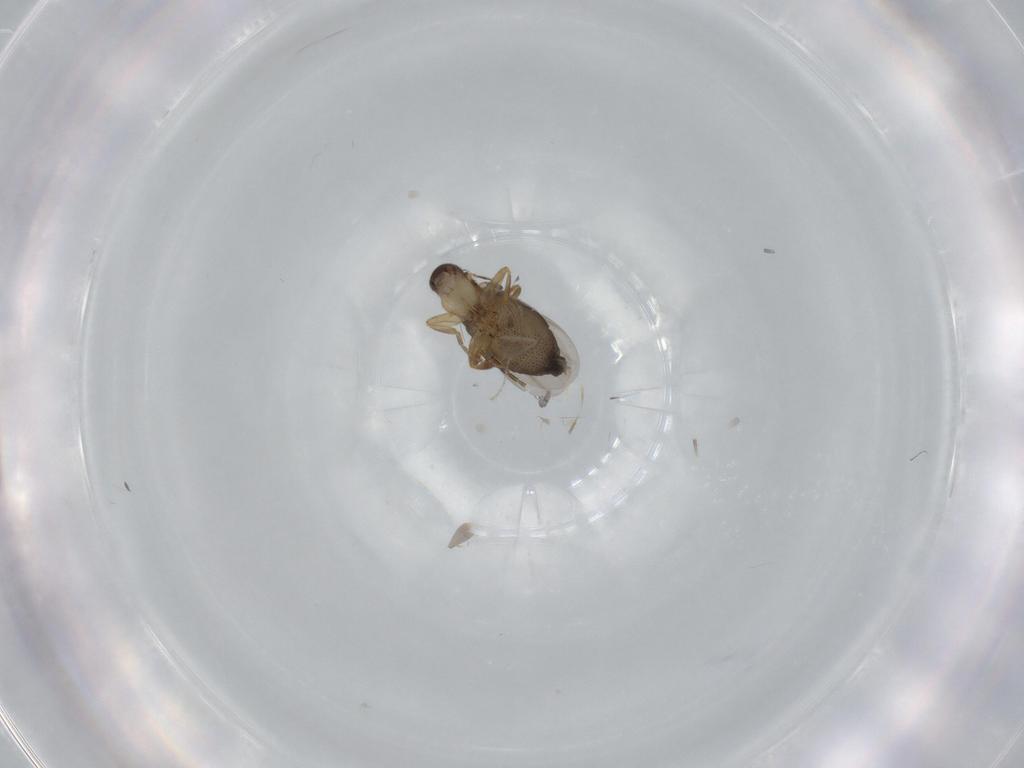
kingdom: Animalia
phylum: Arthropoda
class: Insecta
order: Diptera
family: Phoridae
